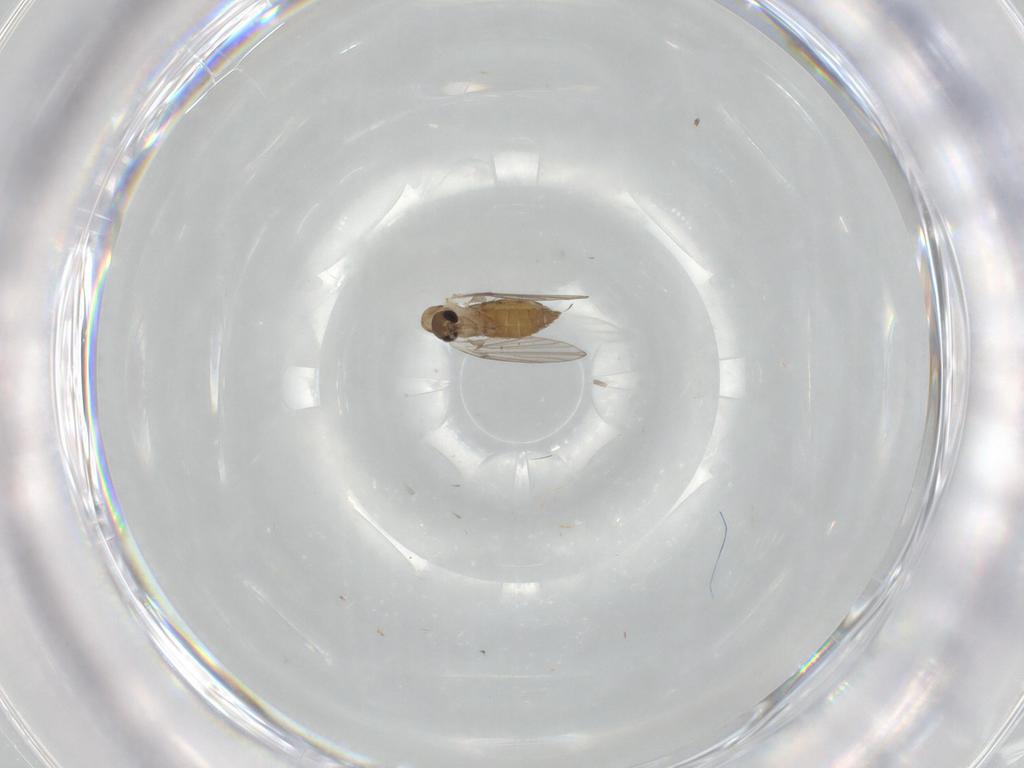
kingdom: Animalia
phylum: Arthropoda
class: Insecta
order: Diptera
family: Psychodidae
